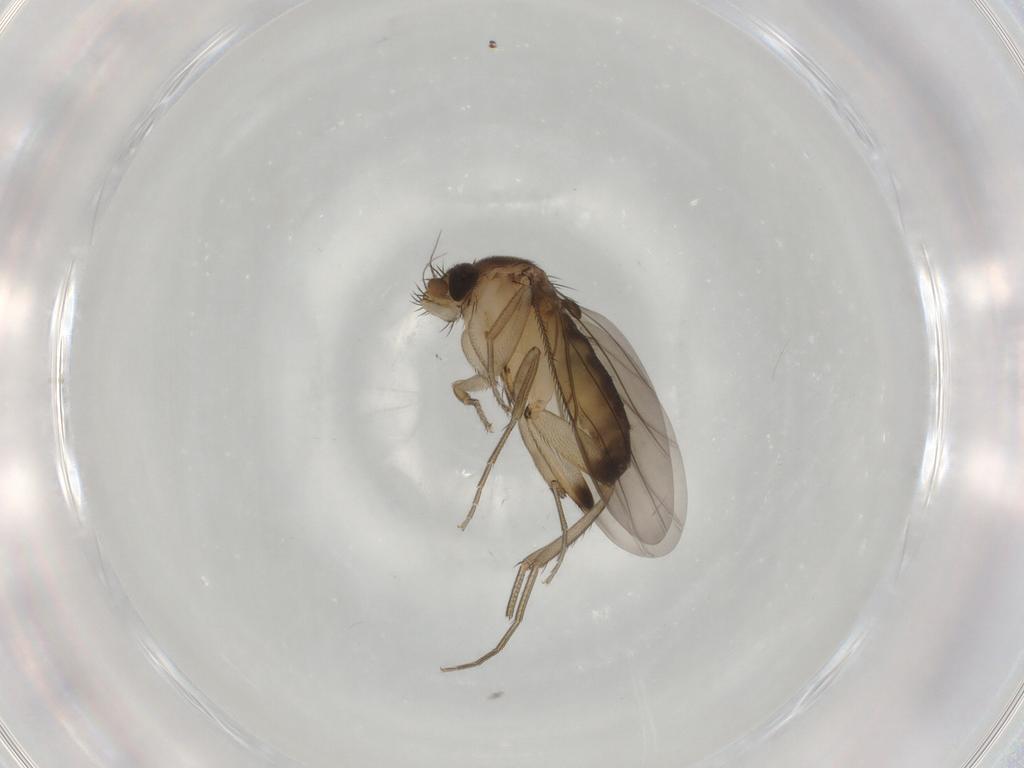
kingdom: Animalia
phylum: Arthropoda
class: Insecta
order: Diptera
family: Phoridae
